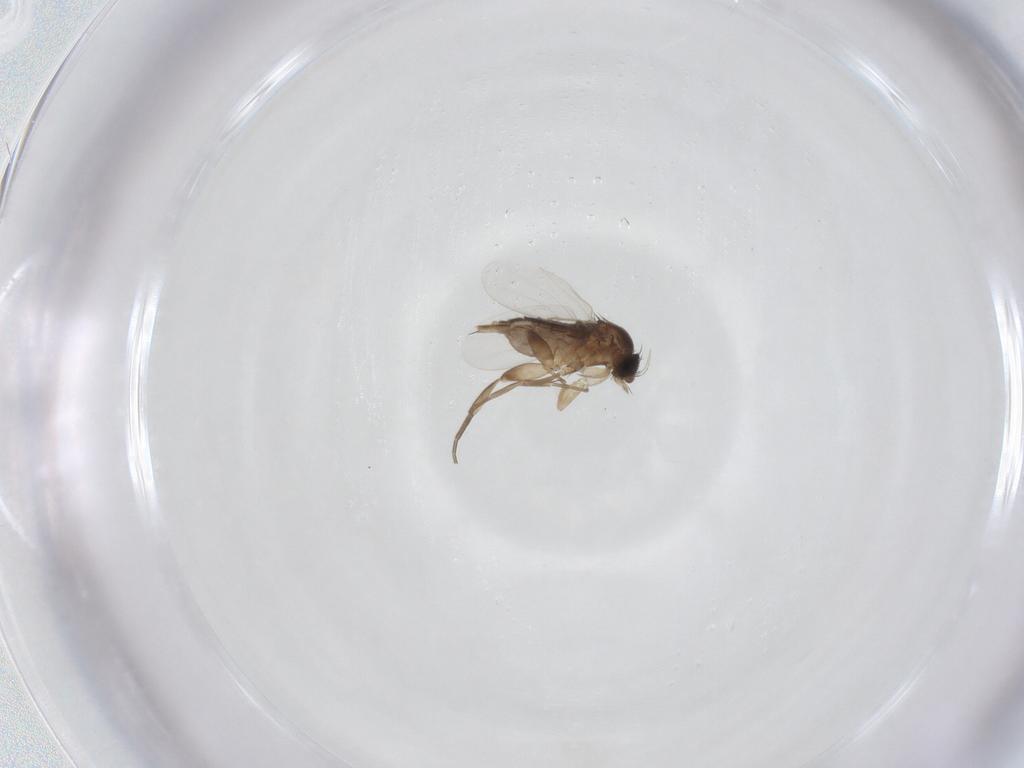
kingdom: Animalia
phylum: Arthropoda
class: Insecta
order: Diptera
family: Phoridae
